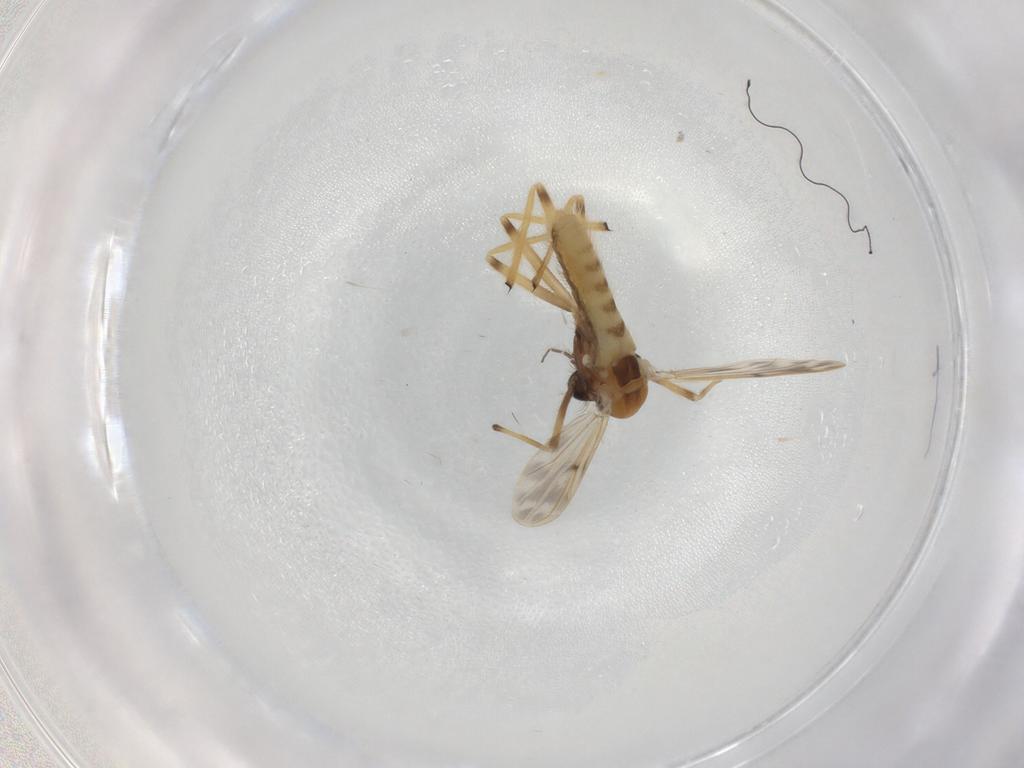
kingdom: Animalia
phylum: Arthropoda
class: Insecta
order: Diptera
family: Chironomidae
